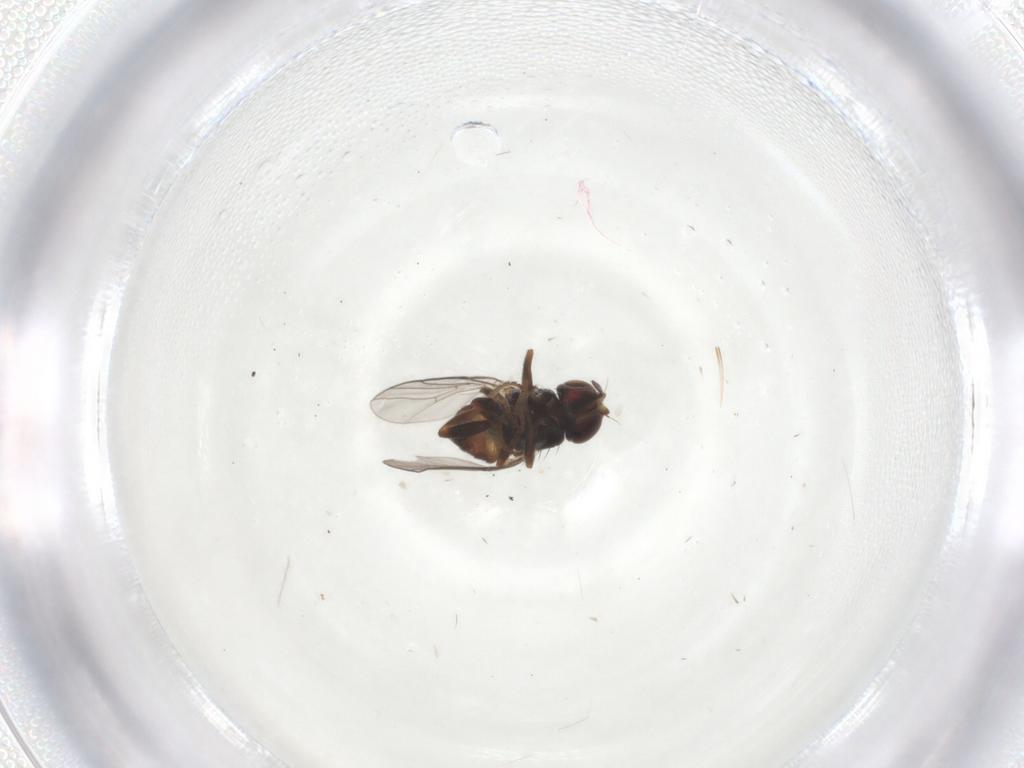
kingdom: Animalia
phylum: Arthropoda
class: Insecta
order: Diptera
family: Chloropidae
